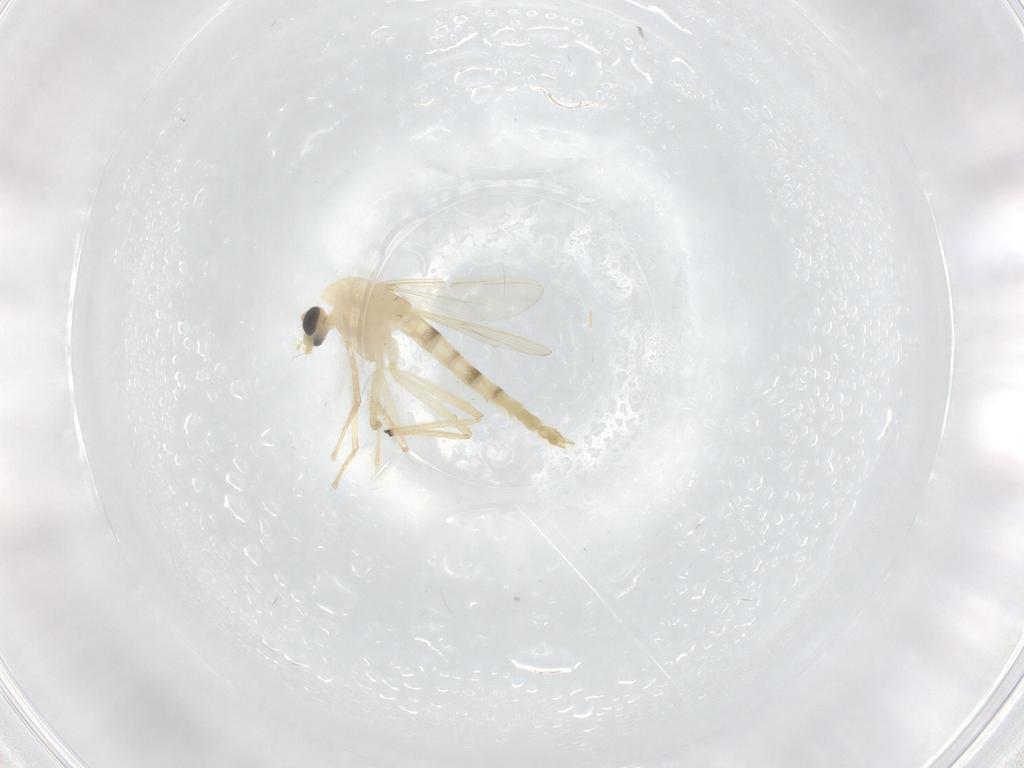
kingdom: Animalia
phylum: Arthropoda
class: Insecta
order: Diptera
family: Chironomidae
